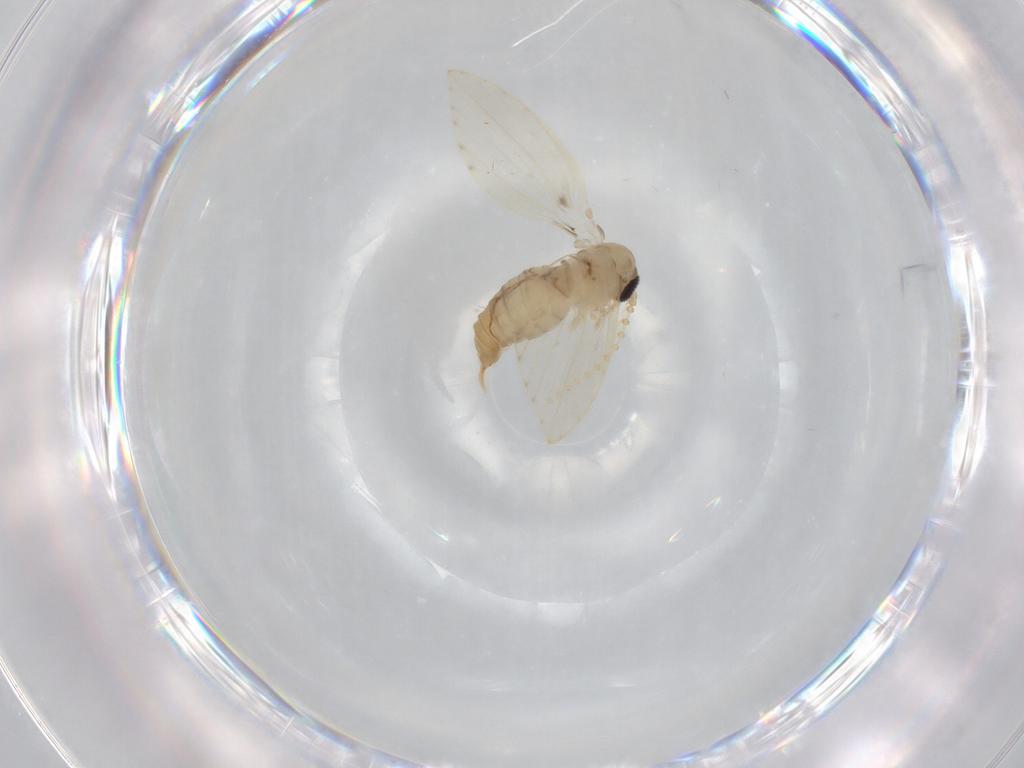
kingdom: Animalia
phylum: Arthropoda
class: Insecta
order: Diptera
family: Psychodidae
